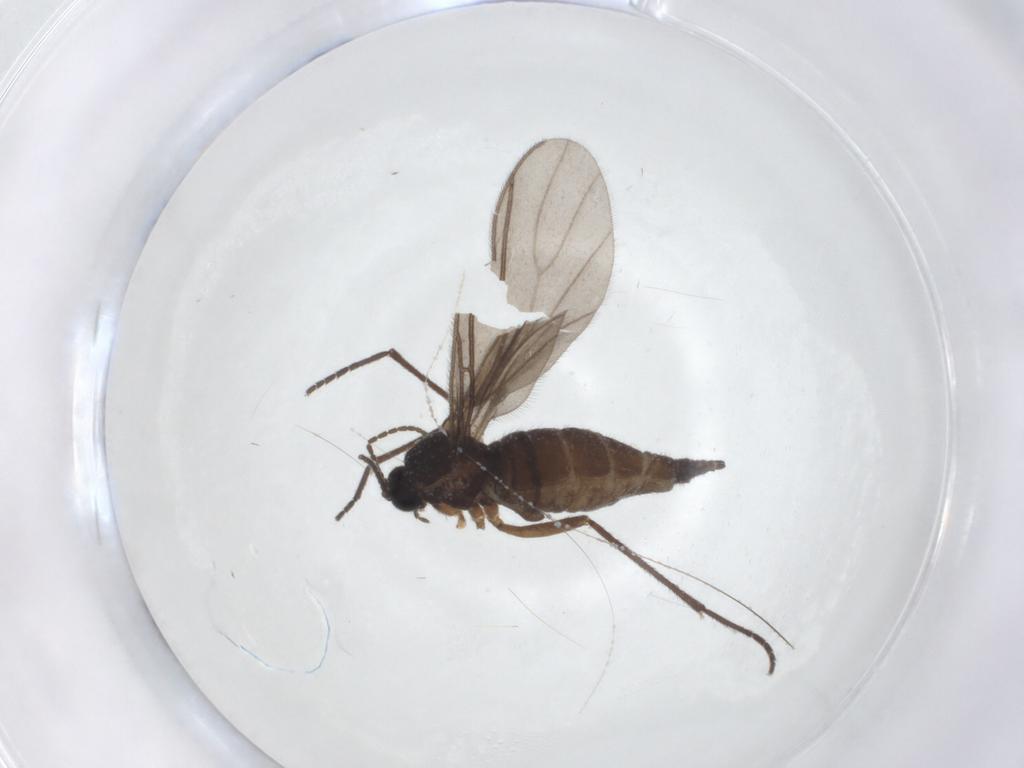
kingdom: Animalia
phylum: Arthropoda
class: Insecta
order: Diptera
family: Sciaridae
